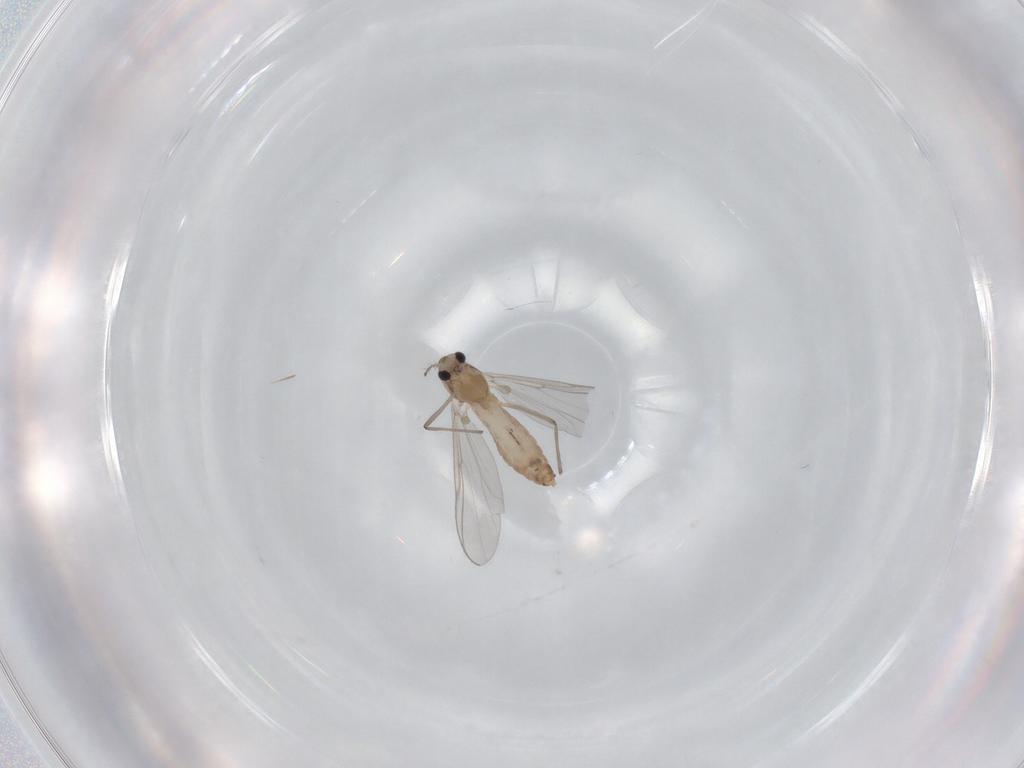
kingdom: Animalia
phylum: Arthropoda
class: Insecta
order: Diptera
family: Chironomidae
